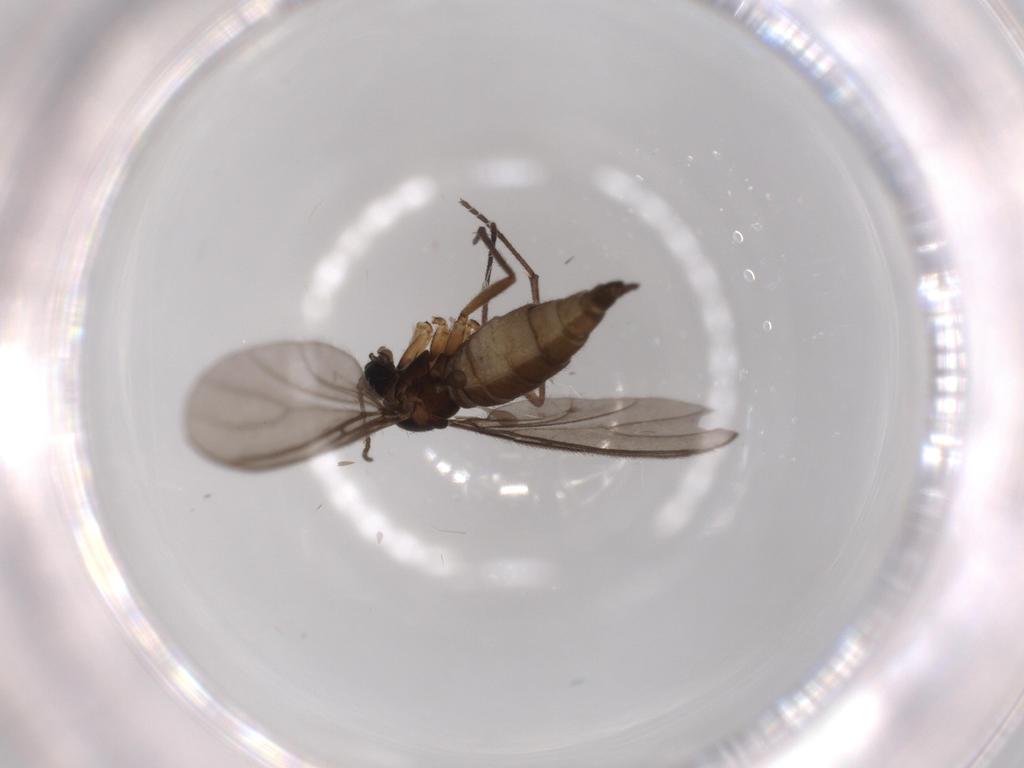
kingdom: Animalia
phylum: Arthropoda
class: Insecta
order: Diptera
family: Sciaridae
